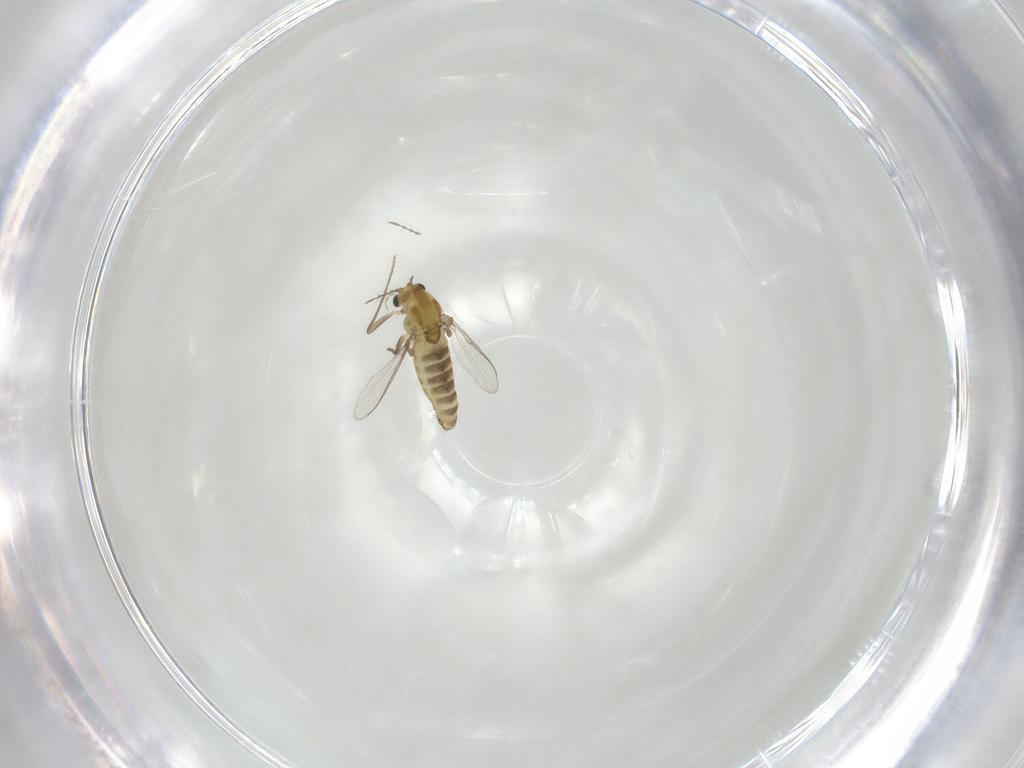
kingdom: Animalia
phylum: Arthropoda
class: Insecta
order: Diptera
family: Chironomidae
